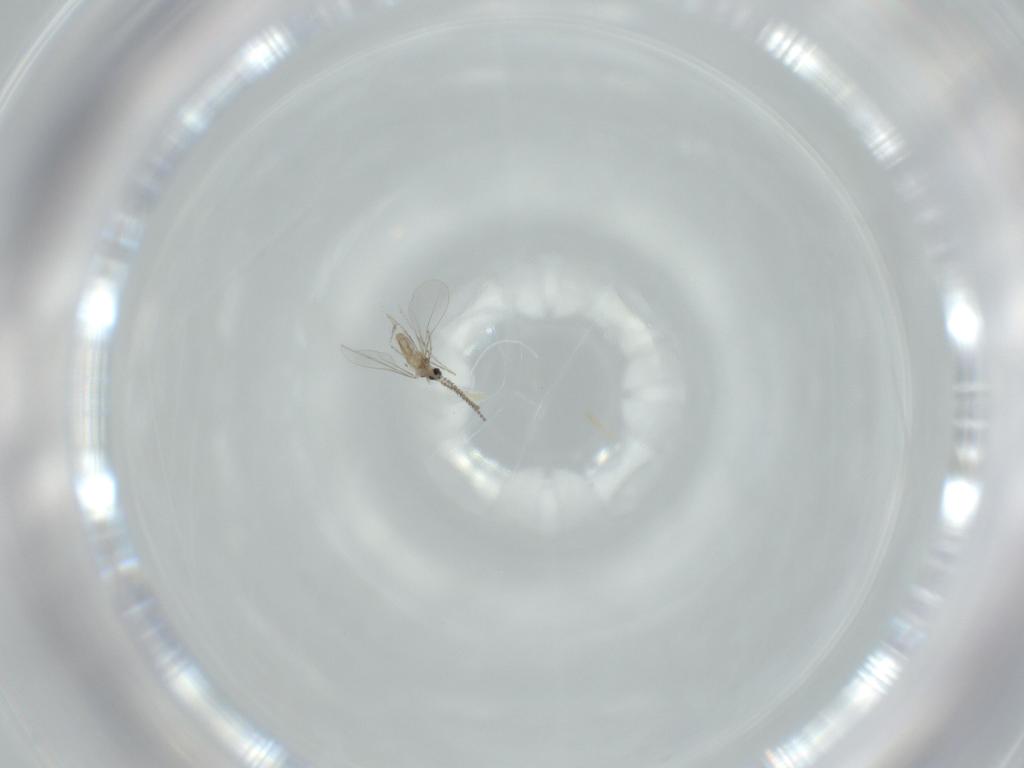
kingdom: Animalia
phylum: Arthropoda
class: Insecta
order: Diptera
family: Cecidomyiidae
